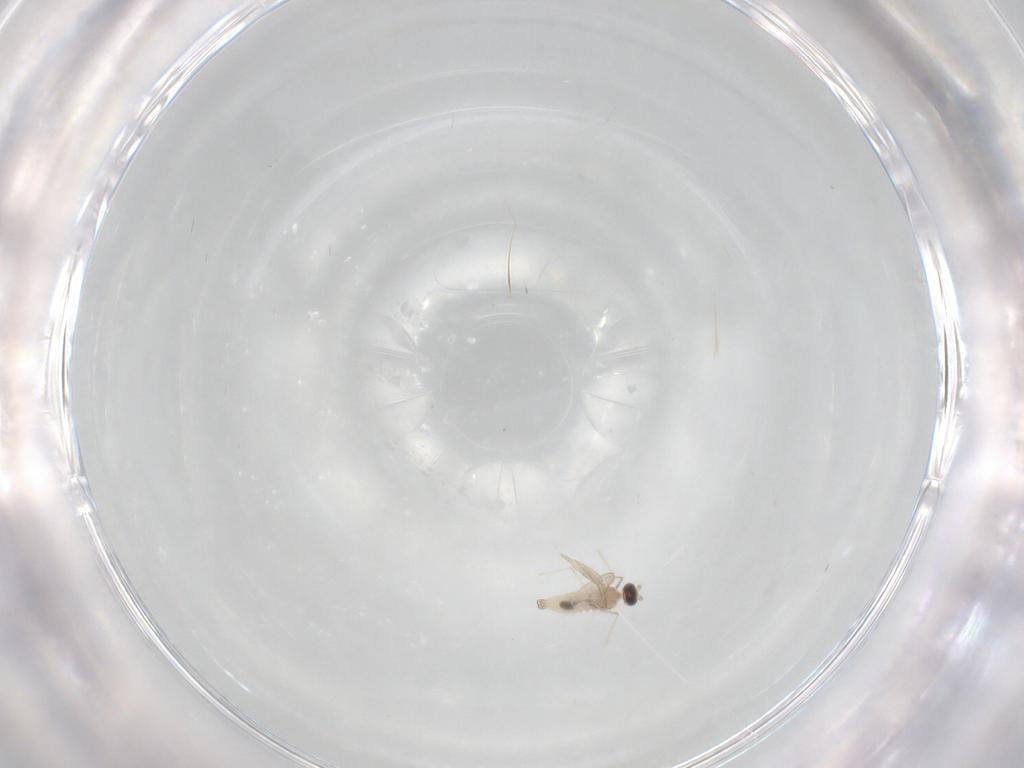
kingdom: Animalia
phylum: Arthropoda
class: Insecta
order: Diptera
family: Cecidomyiidae
